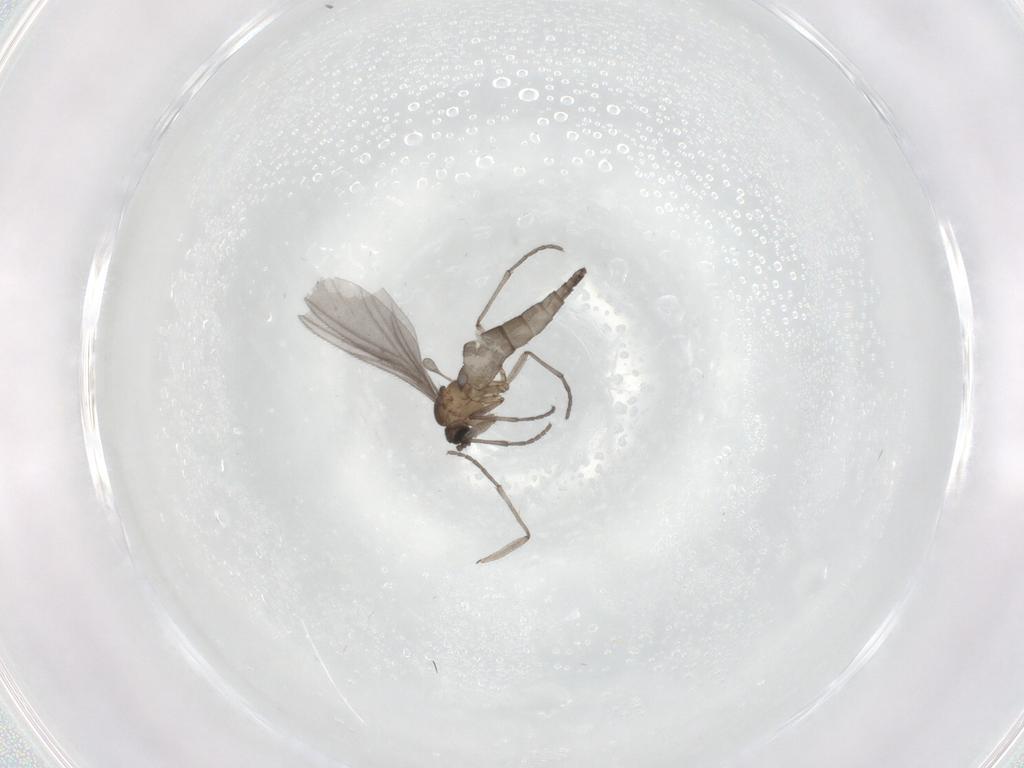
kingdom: Animalia
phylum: Arthropoda
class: Insecta
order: Diptera
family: Sciaridae
